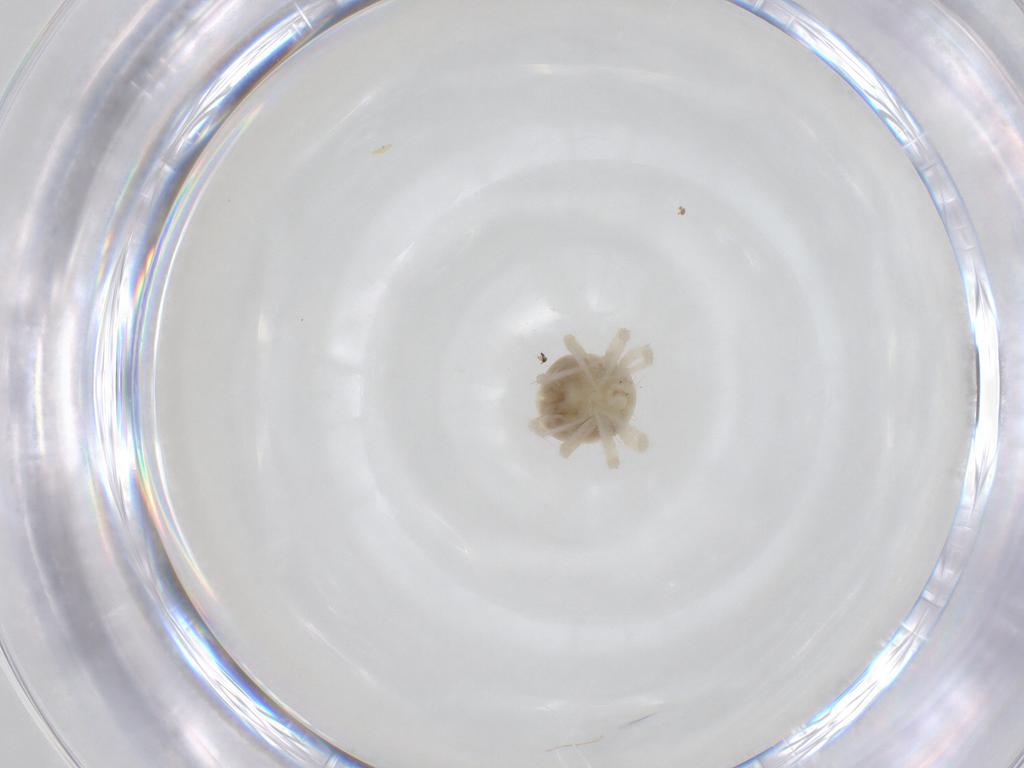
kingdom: Animalia
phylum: Arthropoda
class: Arachnida
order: Trombidiformes
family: Anystidae
